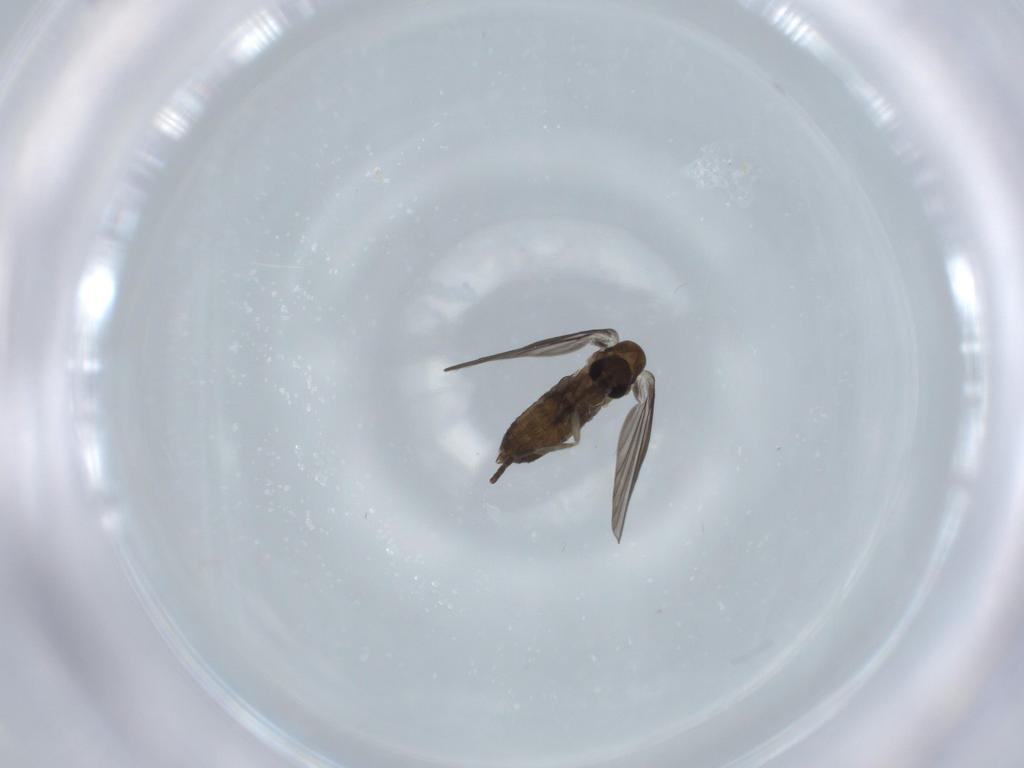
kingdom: Animalia
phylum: Arthropoda
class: Insecta
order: Diptera
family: Psychodidae
